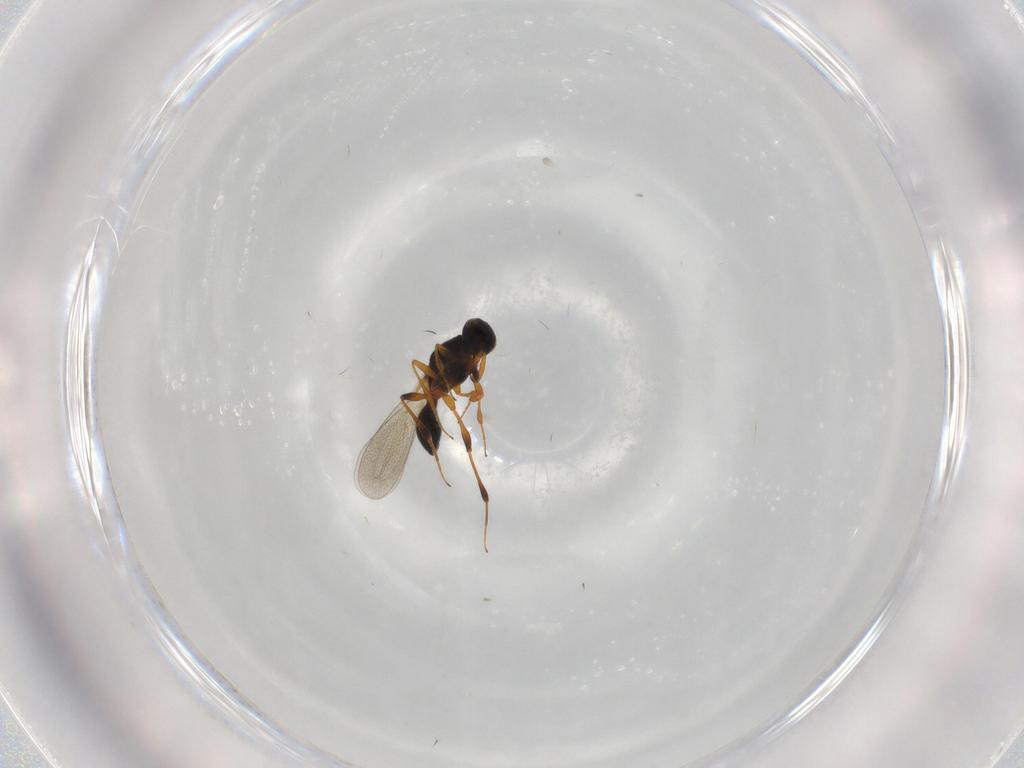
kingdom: Animalia
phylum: Arthropoda
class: Insecta
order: Hymenoptera
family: Platygastridae
